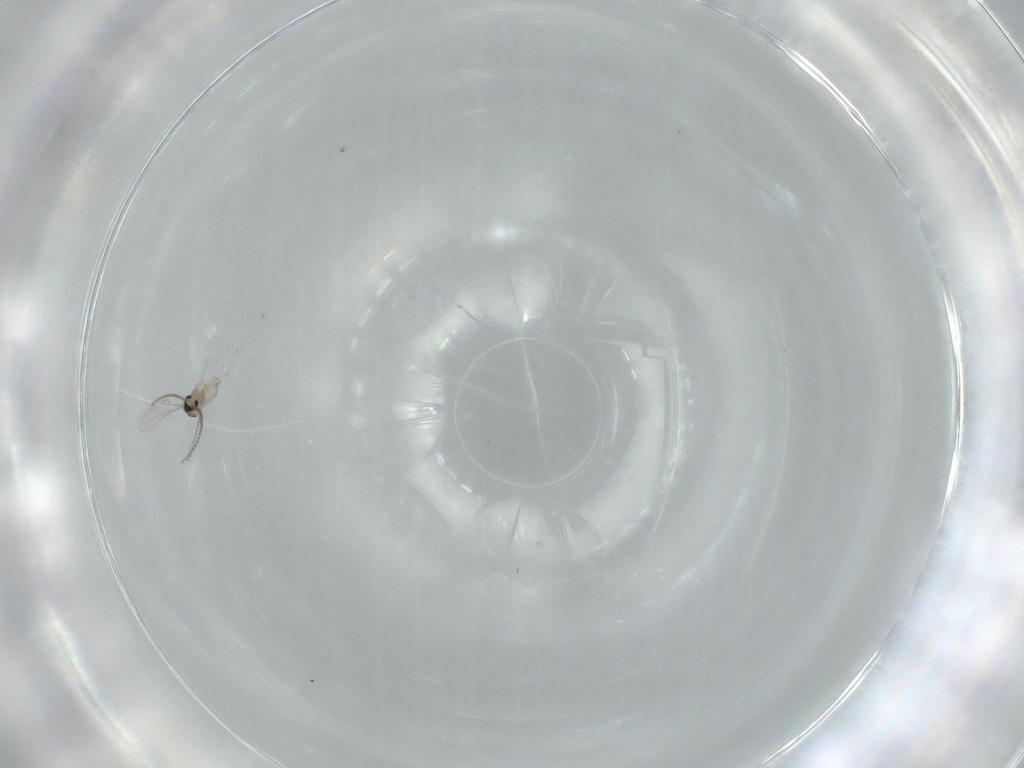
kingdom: Animalia
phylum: Arthropoda
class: Insecta
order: Diptera
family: Cecidomyiidae
